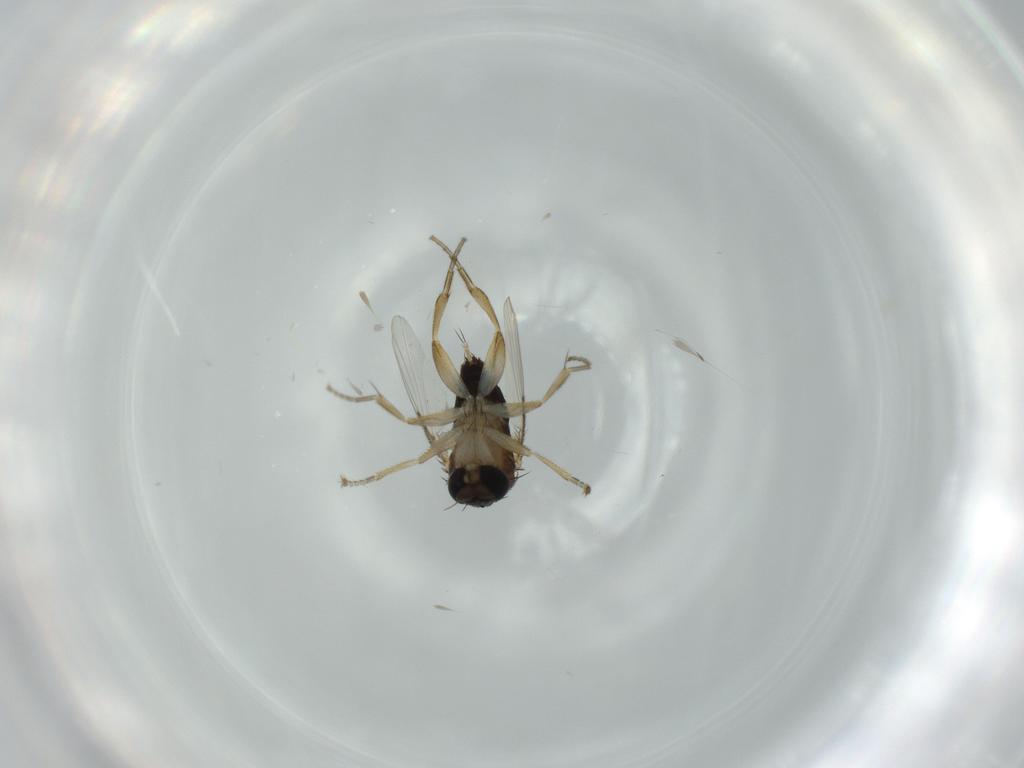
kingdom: Animalia
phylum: Arthropoda
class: Insecta
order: Diptera
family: Phoridae
